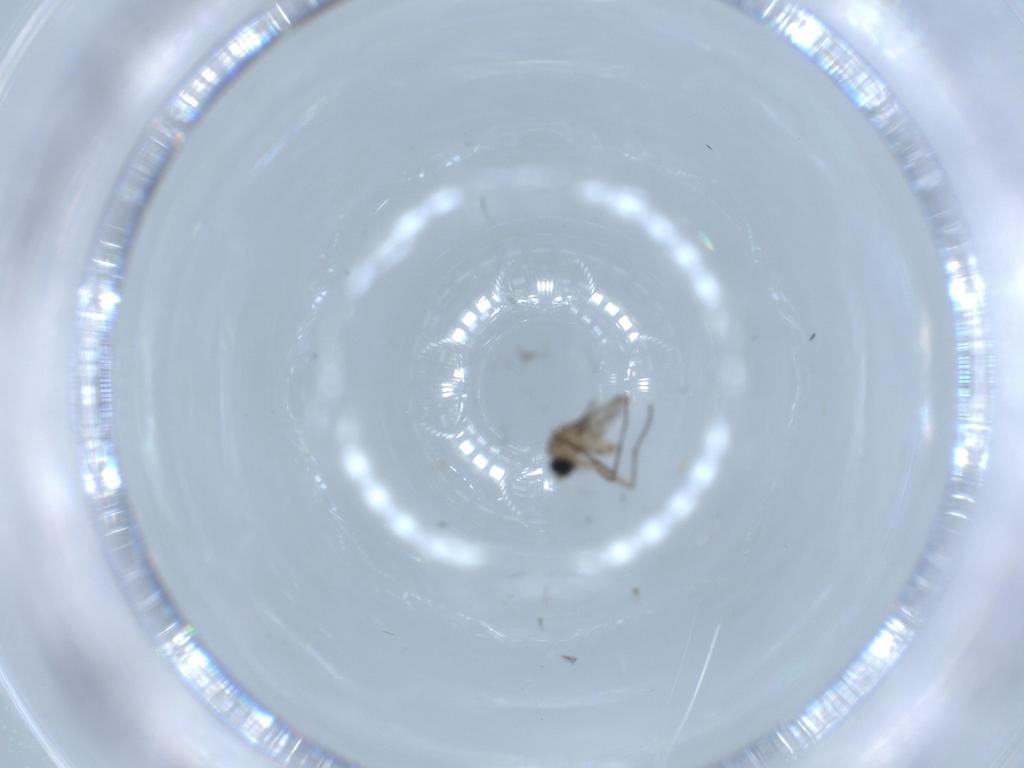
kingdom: Animalia
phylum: Arthropoda
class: Insecta
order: Diptera
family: Sciaridae
